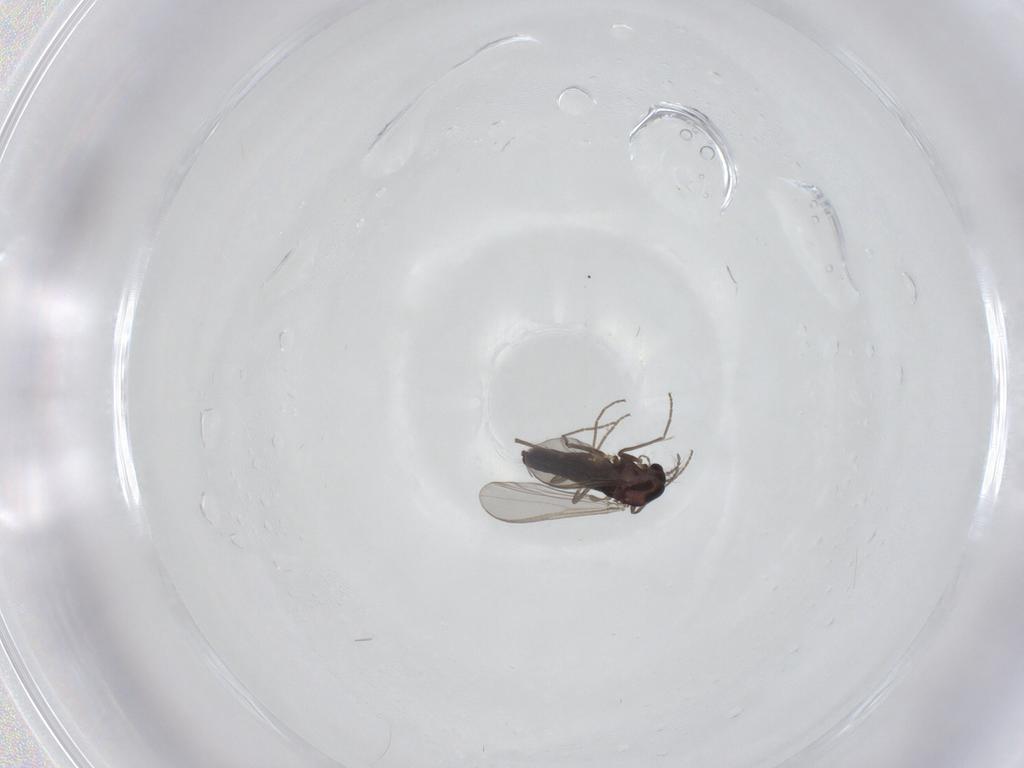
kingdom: Animalia
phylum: Arthropoda
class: Insecta
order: Diptera
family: Chironomidae
